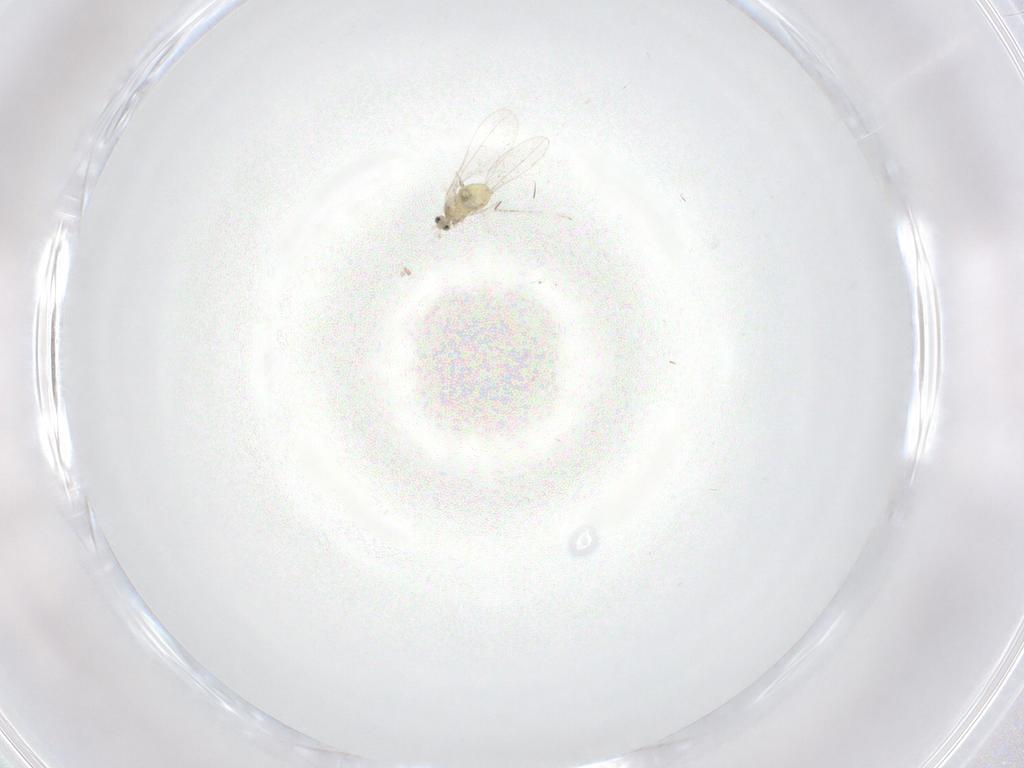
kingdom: Animalia
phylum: Arthropoda
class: Insecta
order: Diptera
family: Cecidomyiidae
